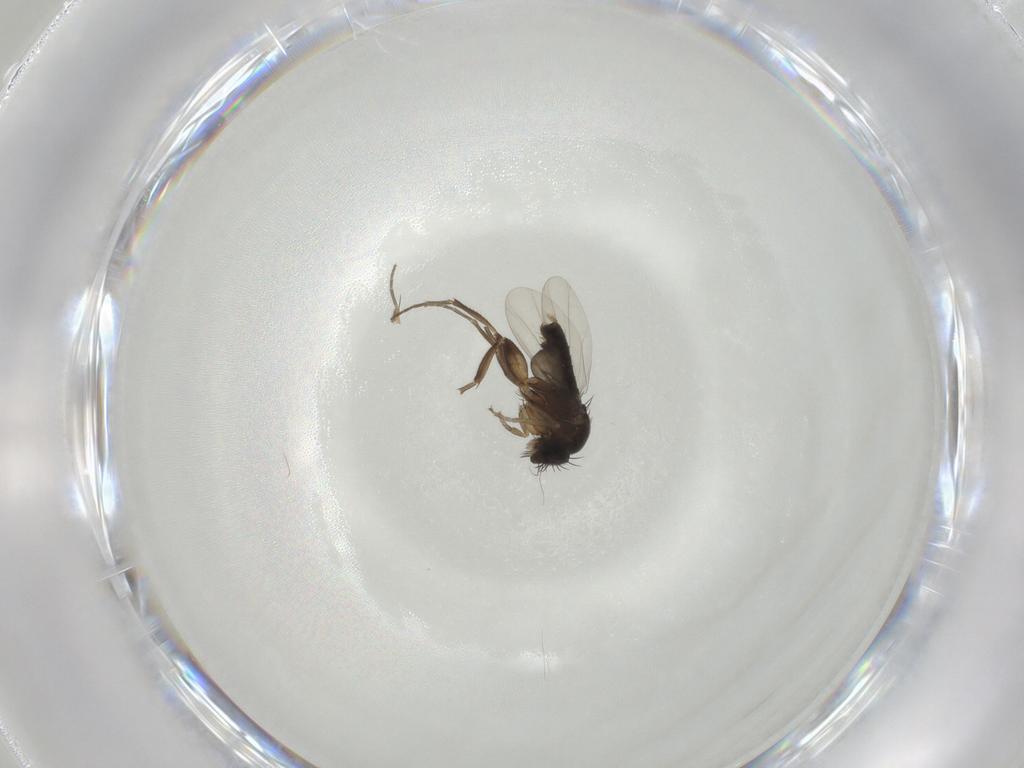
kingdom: Animalia
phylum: Arthropoda
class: Insecta
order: Diptera
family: Phoridae
